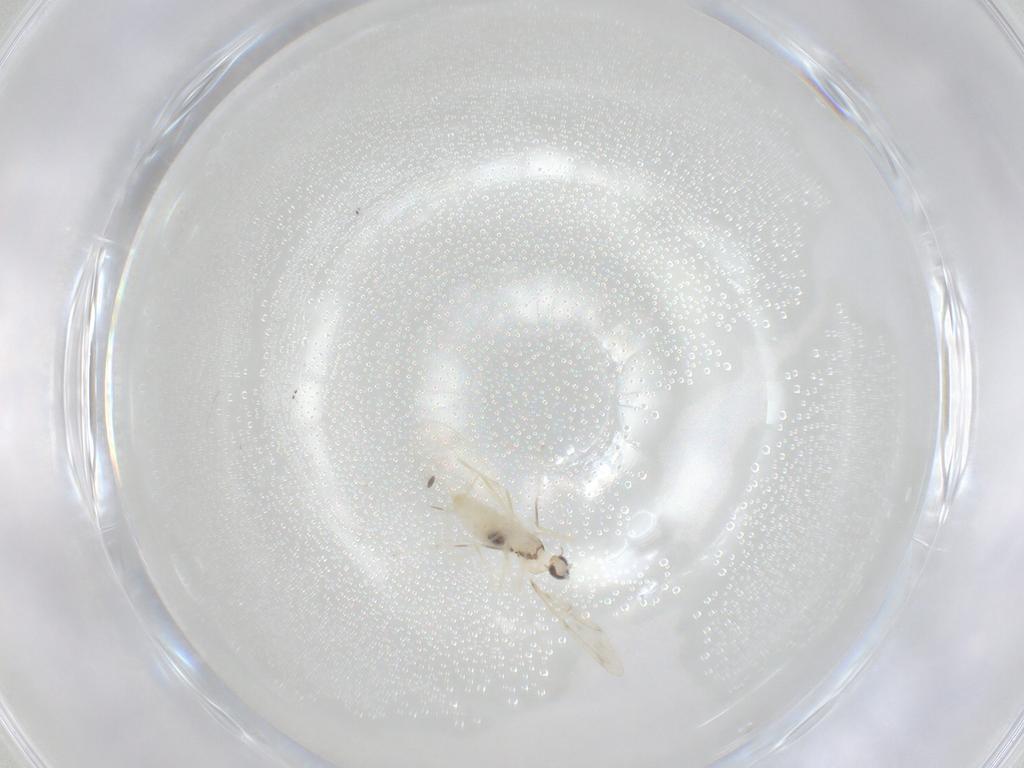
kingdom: Animalia
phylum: Arthropoda
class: Insecta
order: Diptera
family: Cecidomyiidae
